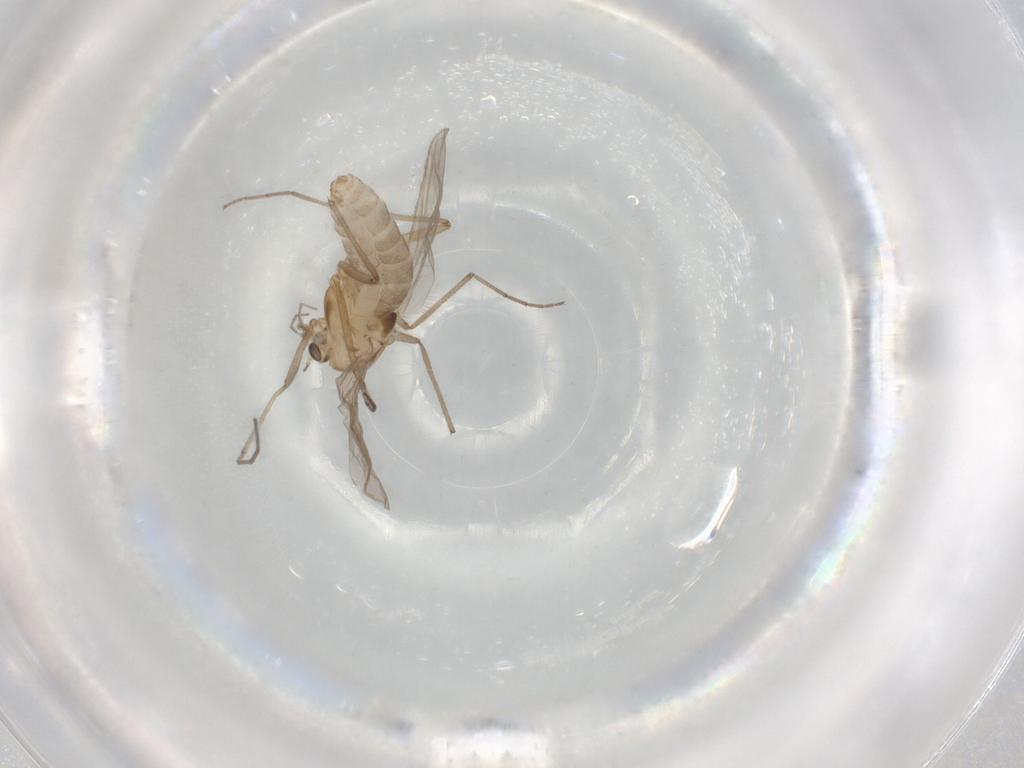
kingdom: Animalia
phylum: Arthropoda
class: Insecta
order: Diptera
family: Chironomidae
